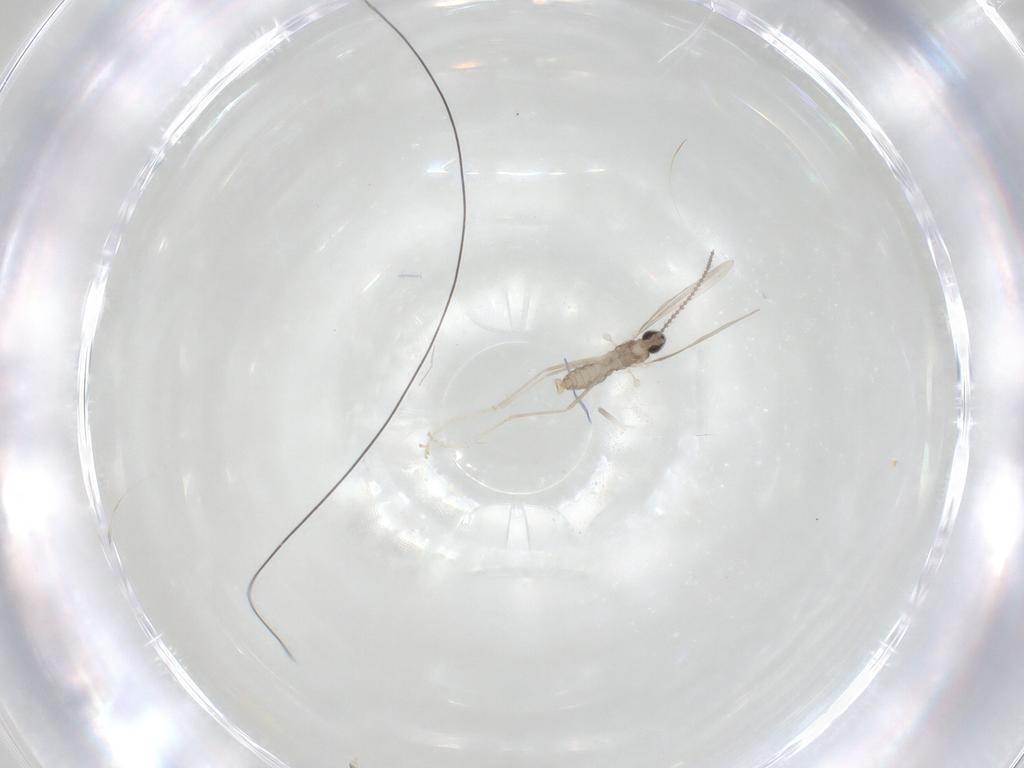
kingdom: Animalia
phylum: Arthropoda
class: Insecta
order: Diptera
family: Cecidomyiidae
